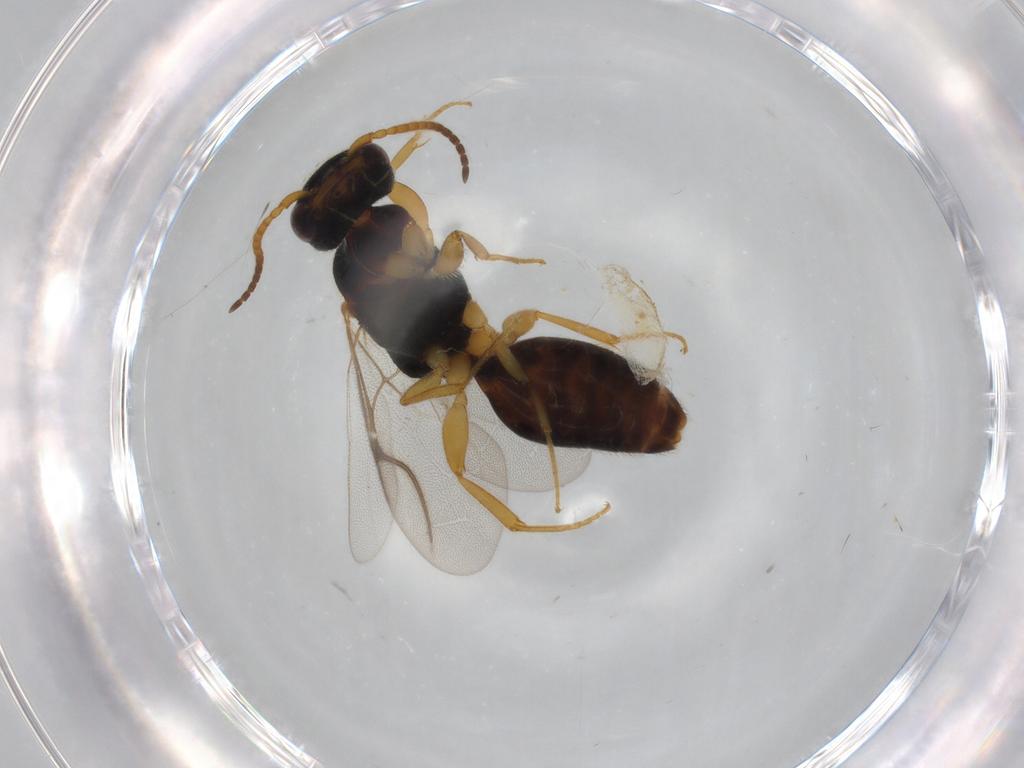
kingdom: Animalia
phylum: Arthropoda
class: Insecta
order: Hymenoptera
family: Bethylidae
